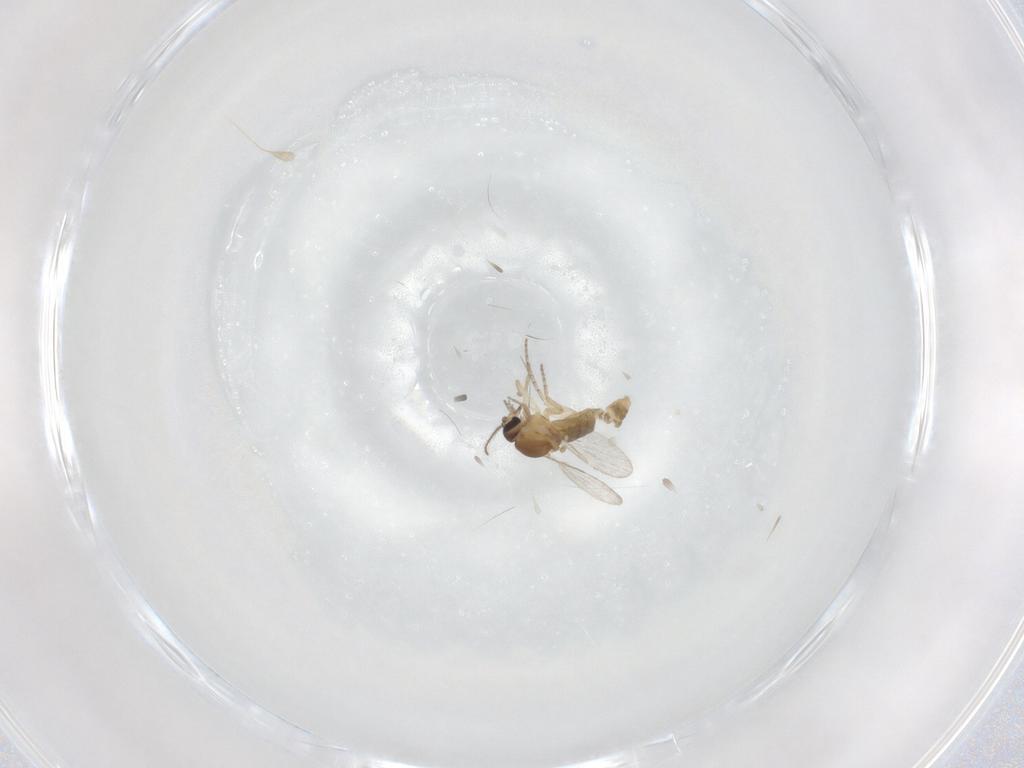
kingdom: Animalia
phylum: Arthropoda
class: Insecta
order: Diptera
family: Ceratopogonidae
